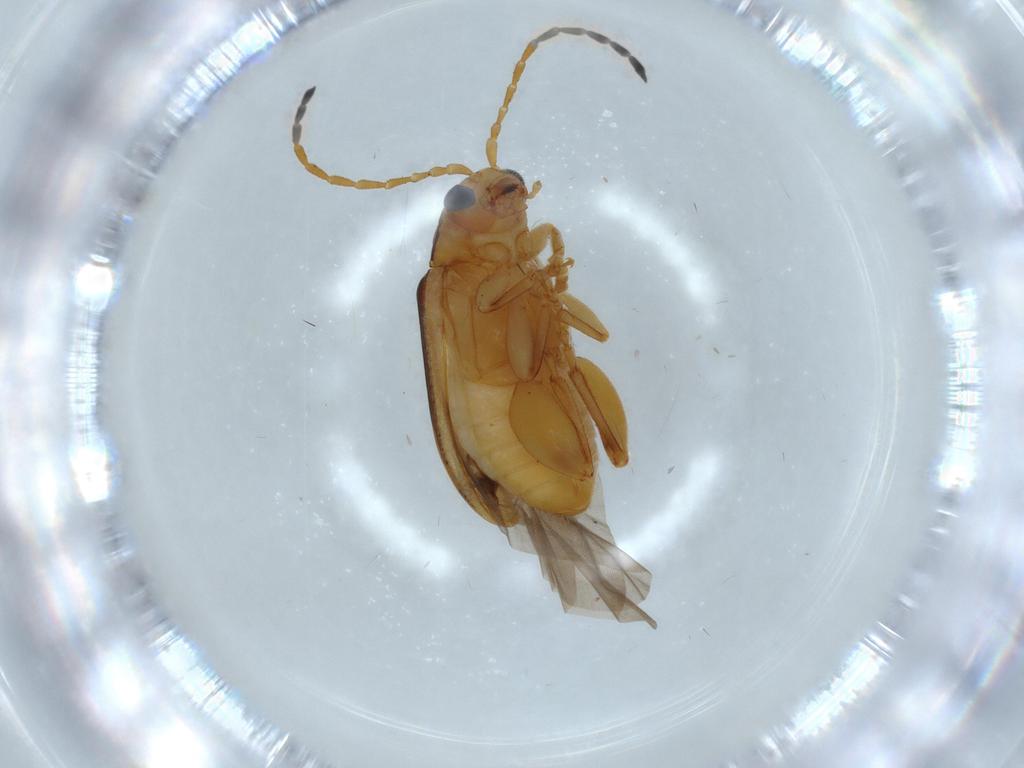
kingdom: Animalia
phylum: Arthropoda
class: Insecta
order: Coleoptera
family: Chrysomelidae
